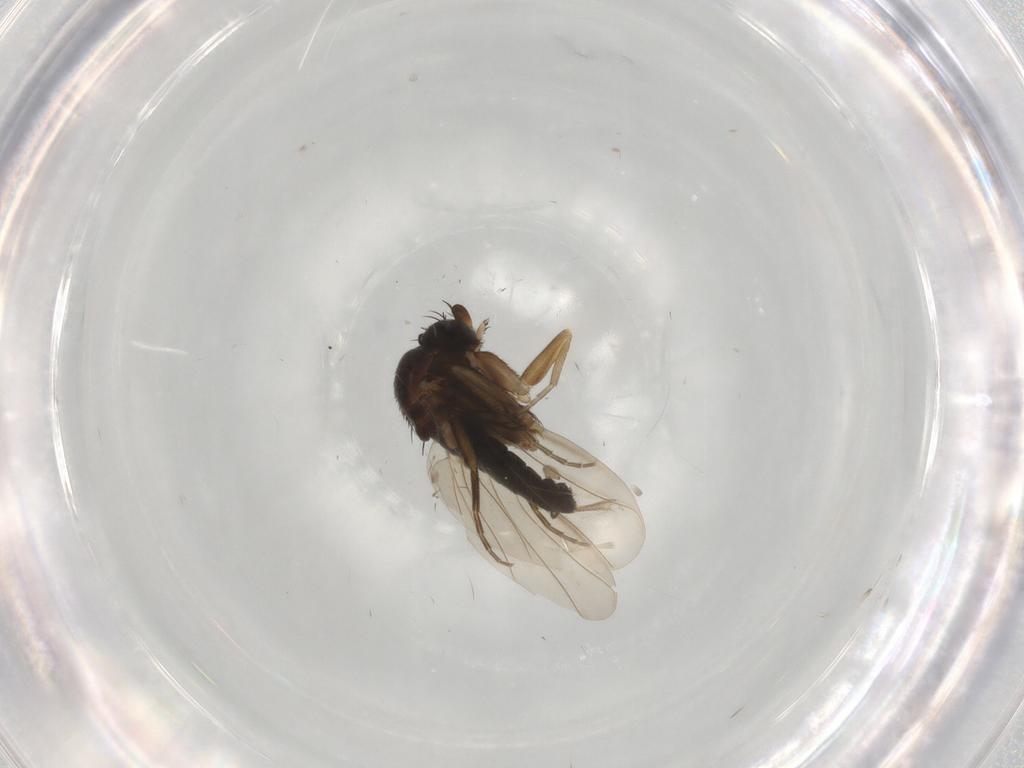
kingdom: Animalia
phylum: Arthropoda
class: Insecta
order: Diptera
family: Phoridae
